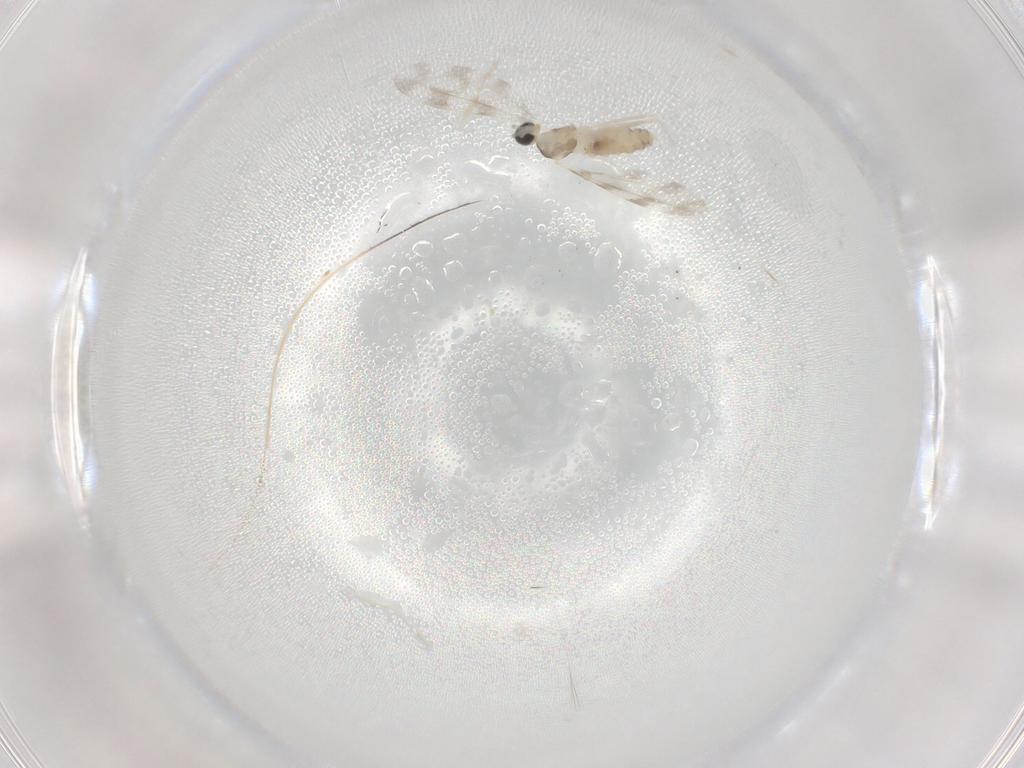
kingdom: Animalia
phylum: Arthropoda
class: Insecta
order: Diptera
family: Cecidomyiidae
